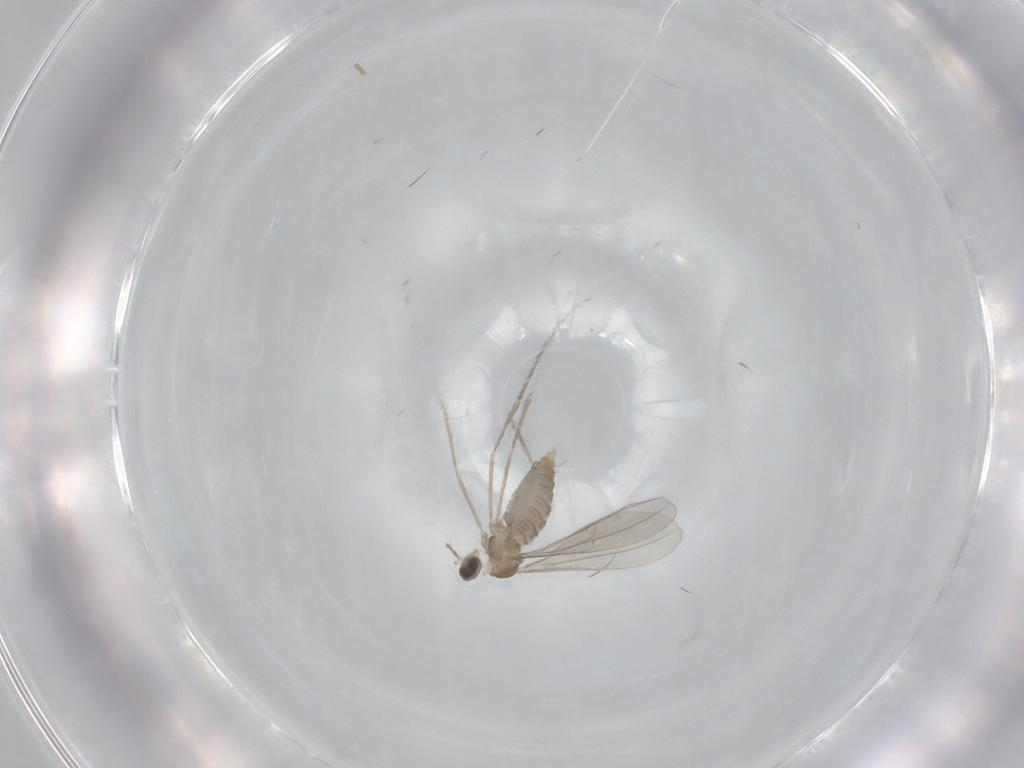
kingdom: Animalia
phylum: Arthropoda
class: Insecta
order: Diptera
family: Cecidomyiidae
